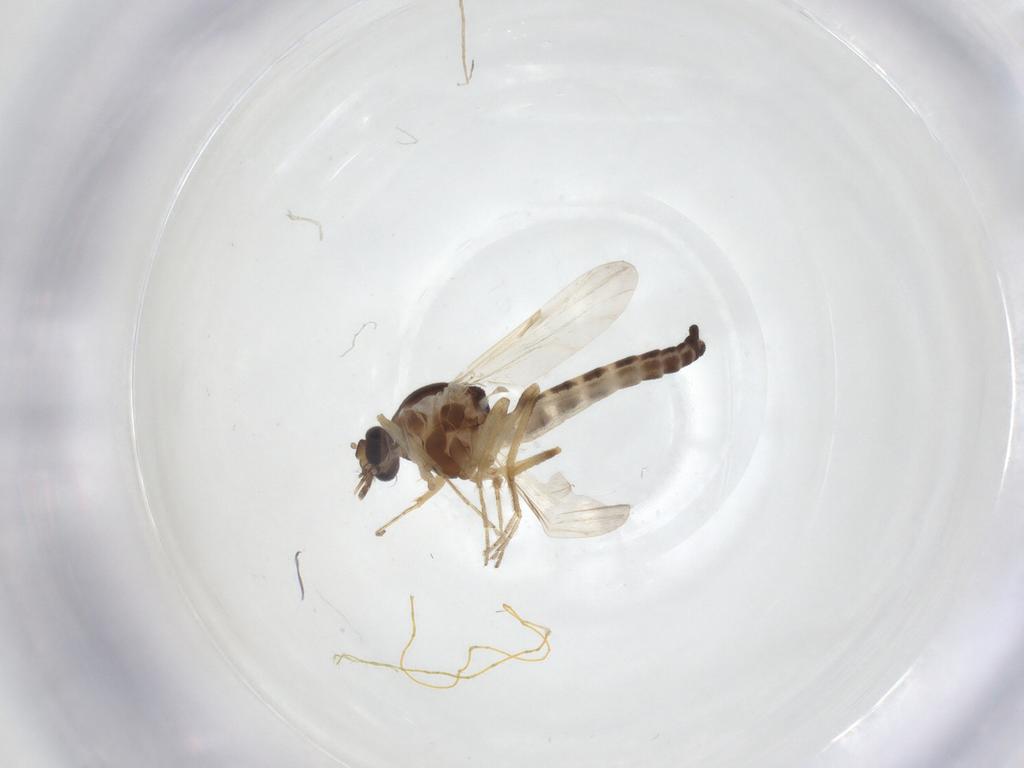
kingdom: Animalia
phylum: Arthropoda
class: Insecta
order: Diptera
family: Ceratopogonidae
